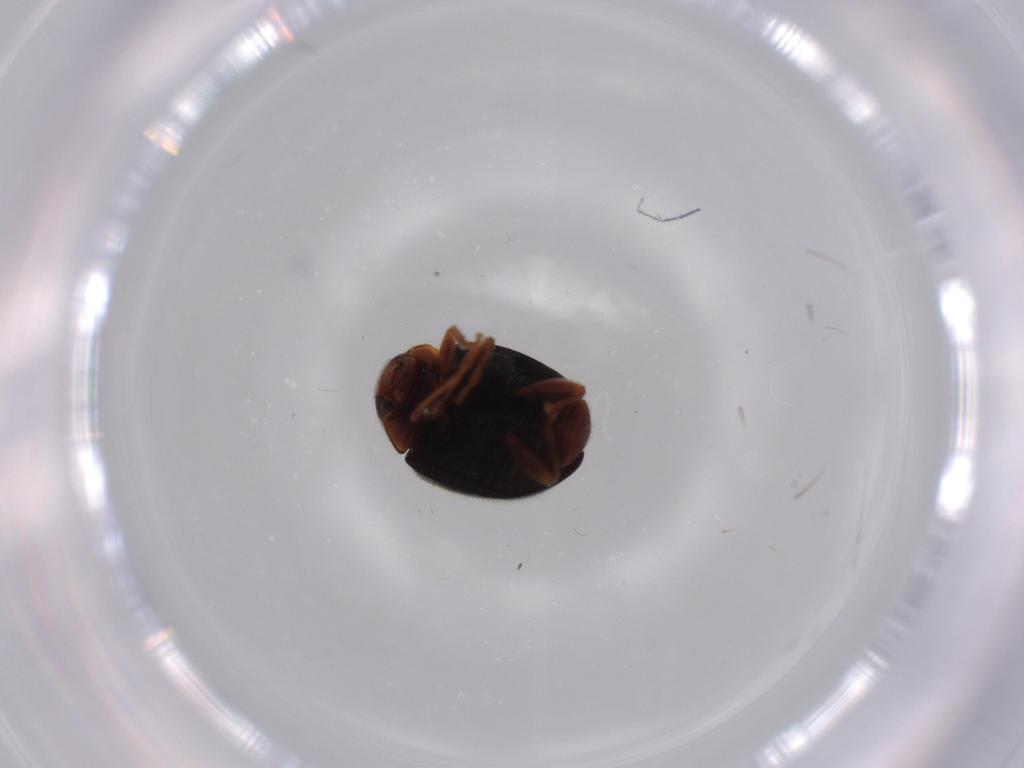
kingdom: Animalia
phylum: Arthropoda
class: Insecta
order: Coleoptera
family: Coccinellidae
